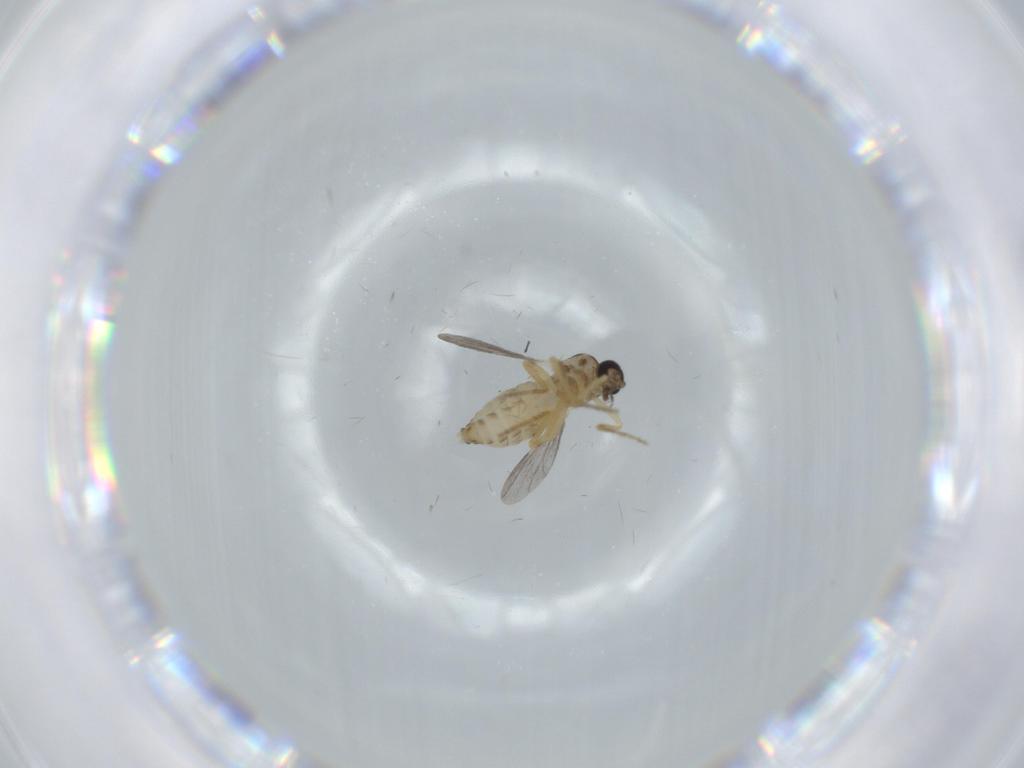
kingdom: Animalia
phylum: Arthropoda
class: Insecta
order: Diptera
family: Ceratopogonidae
